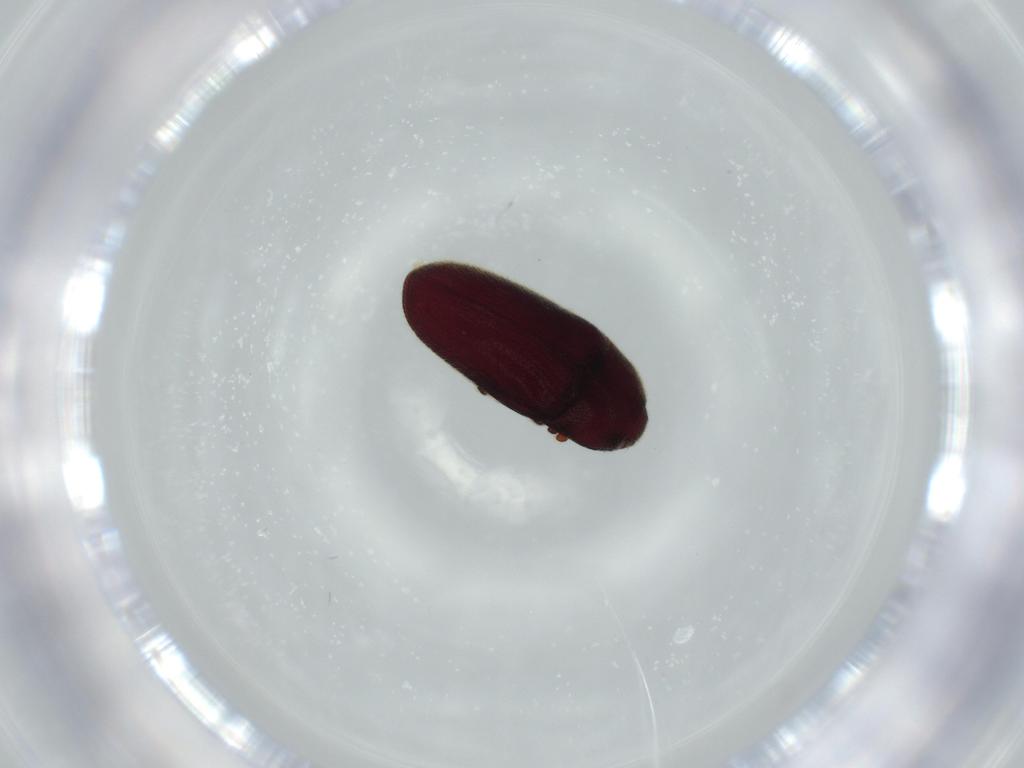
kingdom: Animalia
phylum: Arthropoda
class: Insecta
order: Coleoptera
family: Throscidae
